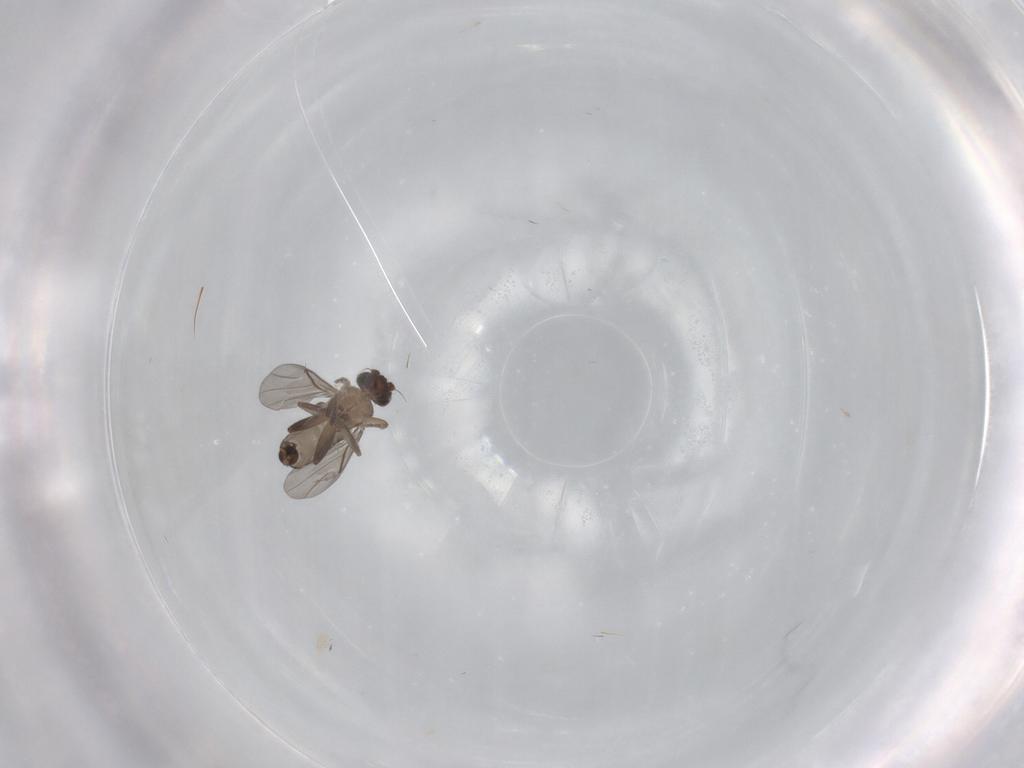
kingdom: Animalia
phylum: Arthropoda
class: Insecta
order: Diptera
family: Chironomidae
